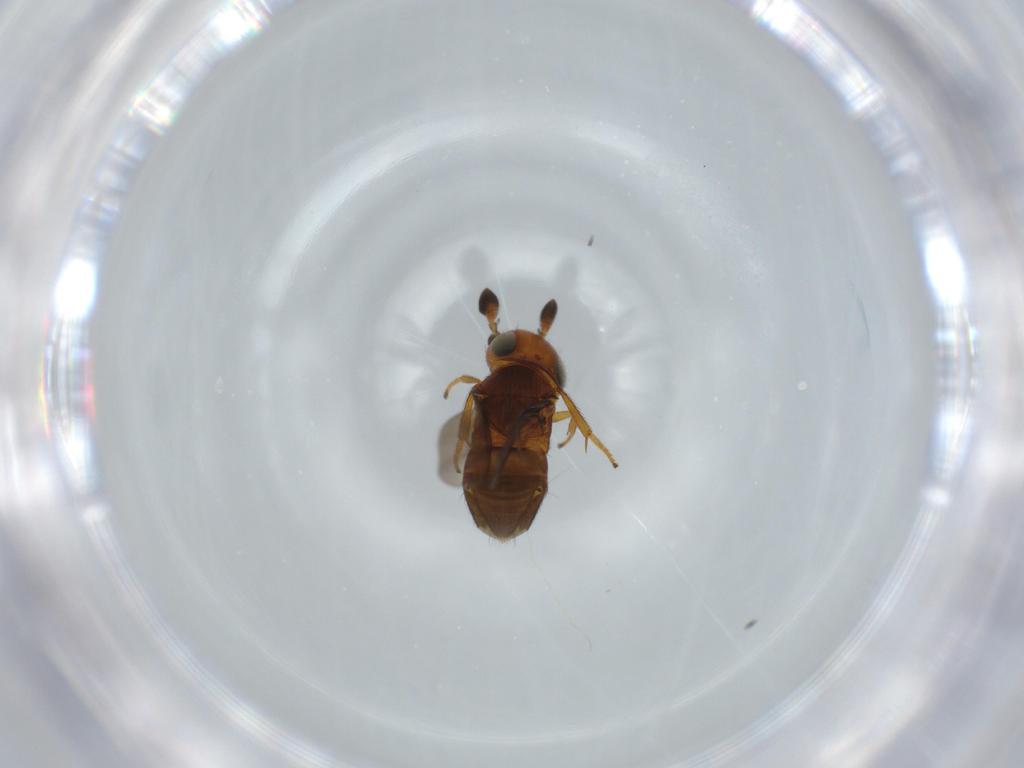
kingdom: Animalia
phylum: Arthropoda
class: Insecta
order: Hymenoptera
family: Encyrtidae
